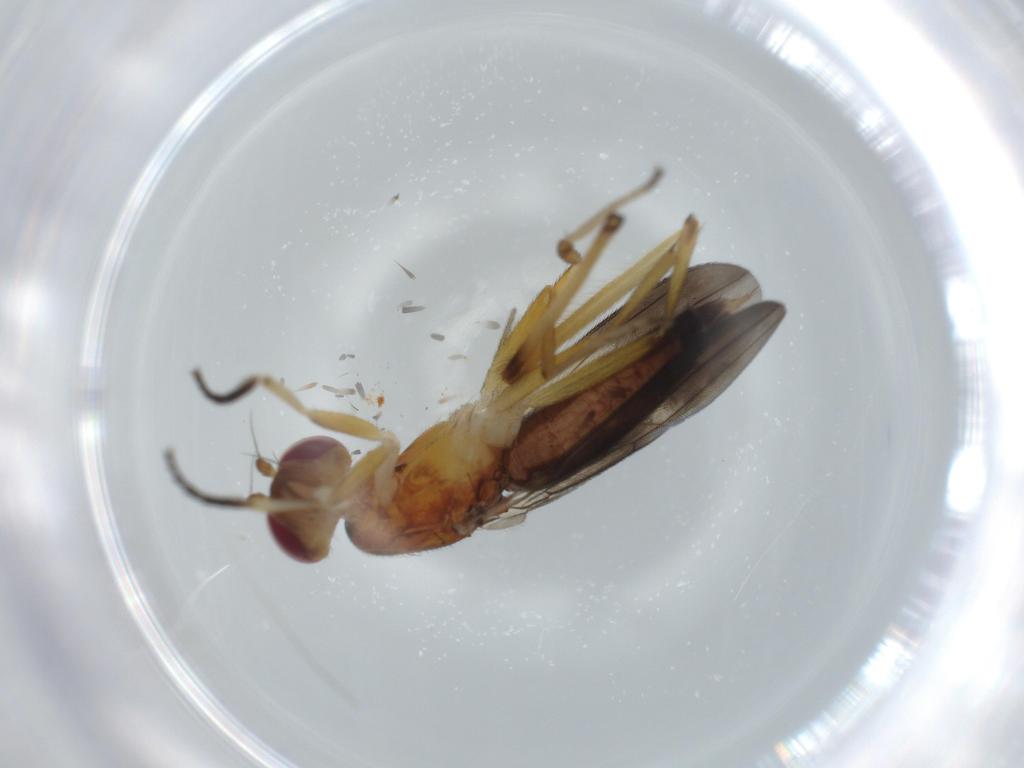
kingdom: Animalia
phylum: Arthropoda
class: Insecta
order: Diptera
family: Clusiidae
